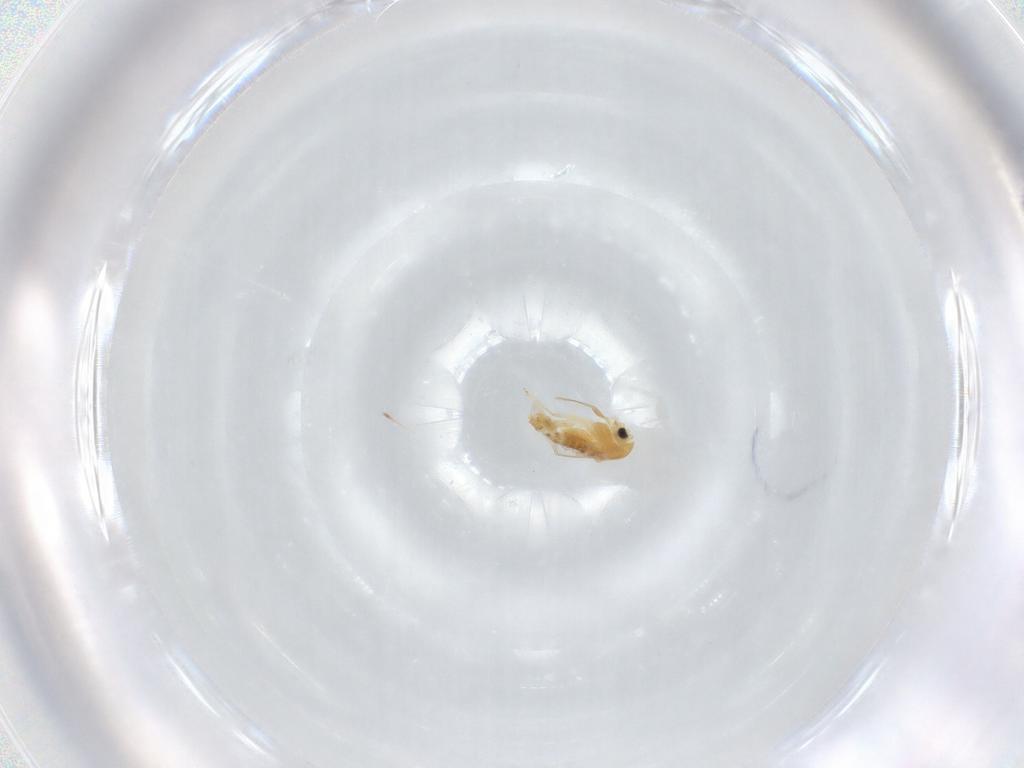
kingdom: Animalia
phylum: Arthropoda
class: Insecta
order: Diptera
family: Chironomidae
